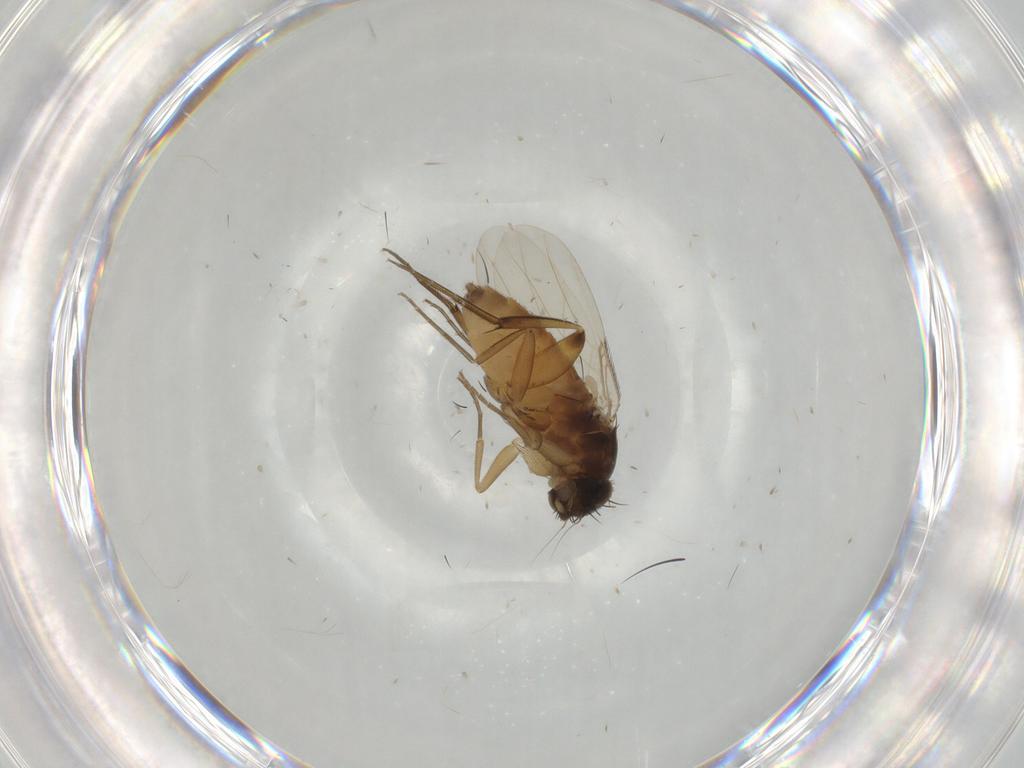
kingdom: Animalia
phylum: Arthropoda
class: Insecta
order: Diptera
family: Phoridae
